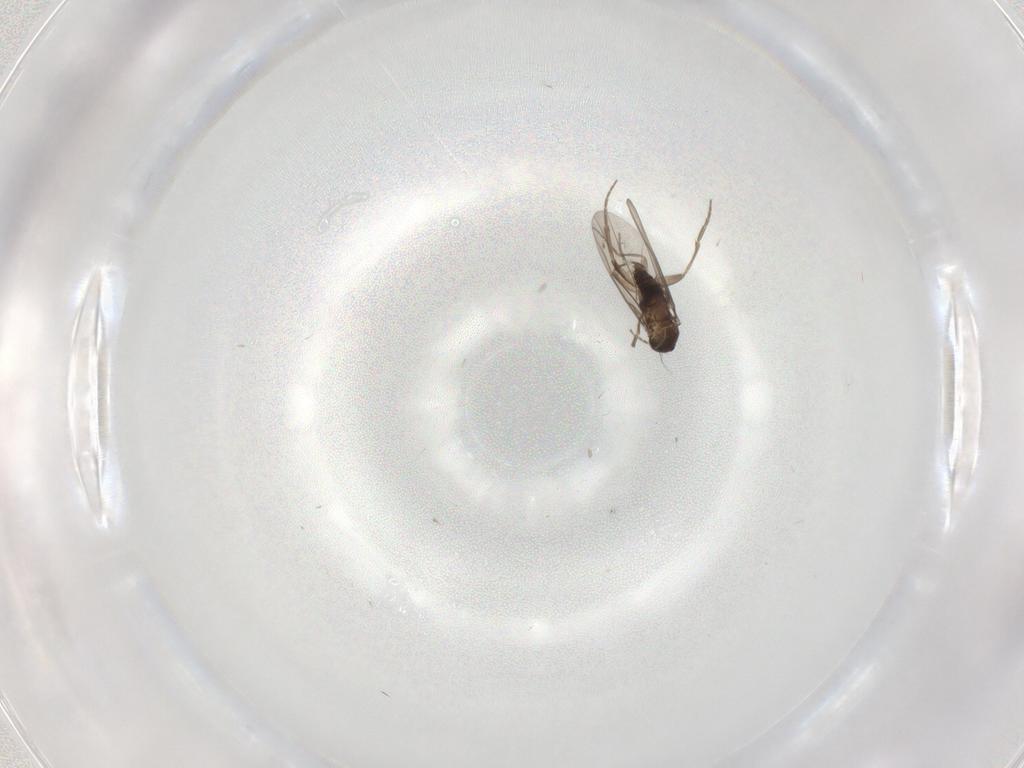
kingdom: Animalia
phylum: Arthropoda
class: Insecta
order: Diptera
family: Phoridae
